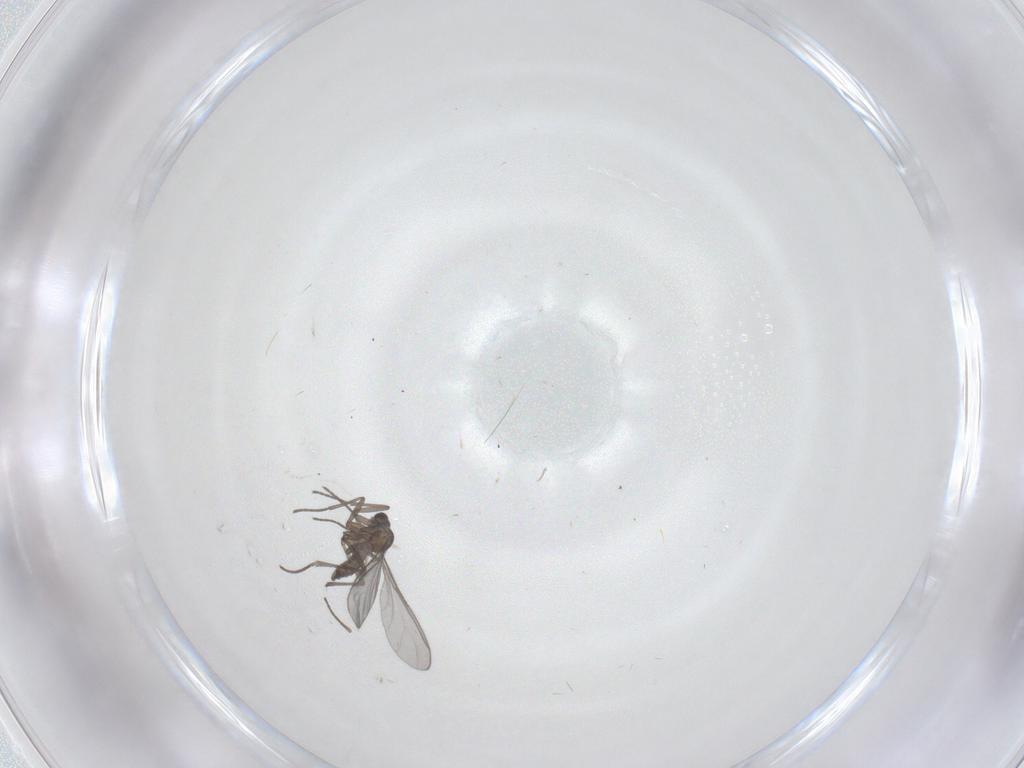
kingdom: Animalia
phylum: Arthropoda
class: Insecta
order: Diptera
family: Sciaridae
